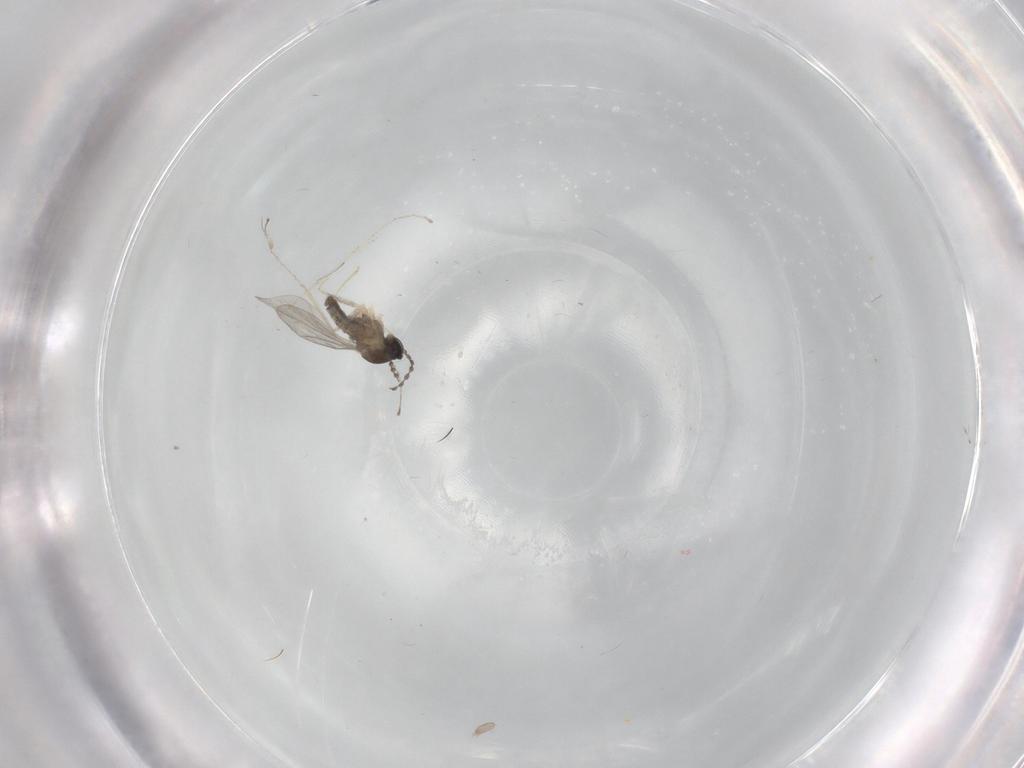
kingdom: Animalia
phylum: Arthropoda
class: Insecta
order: Diptera
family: Cecidomyiidae
